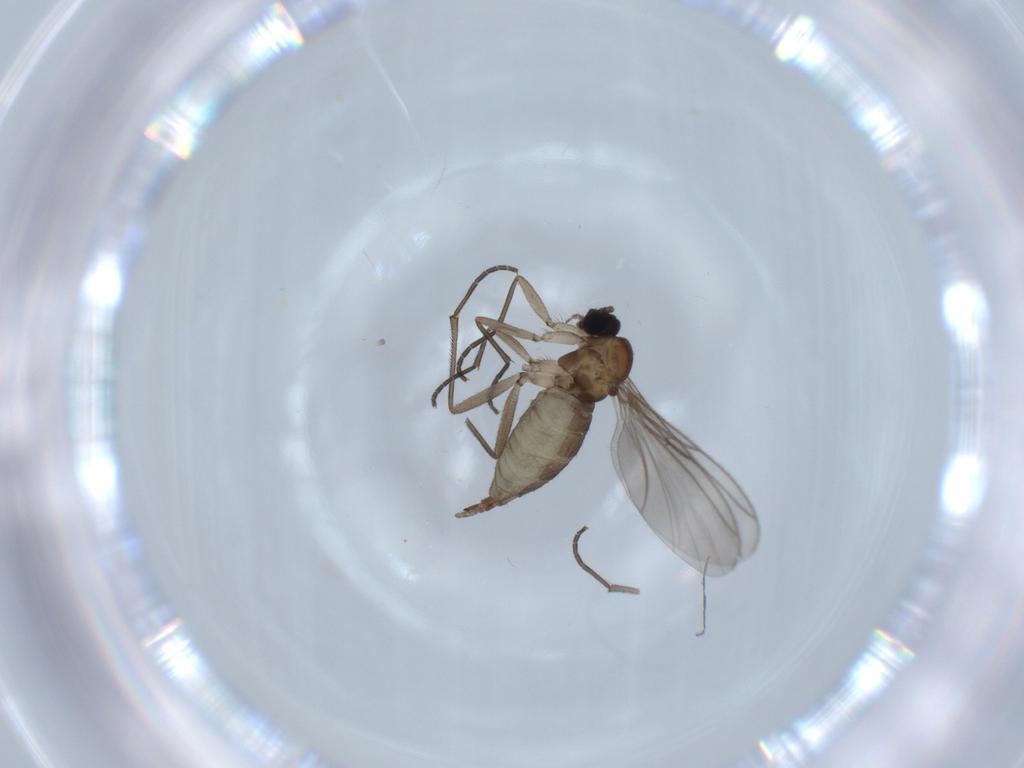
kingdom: Animalia
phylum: Arthropoda
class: Insecta
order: Diptera
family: Sciaridae
